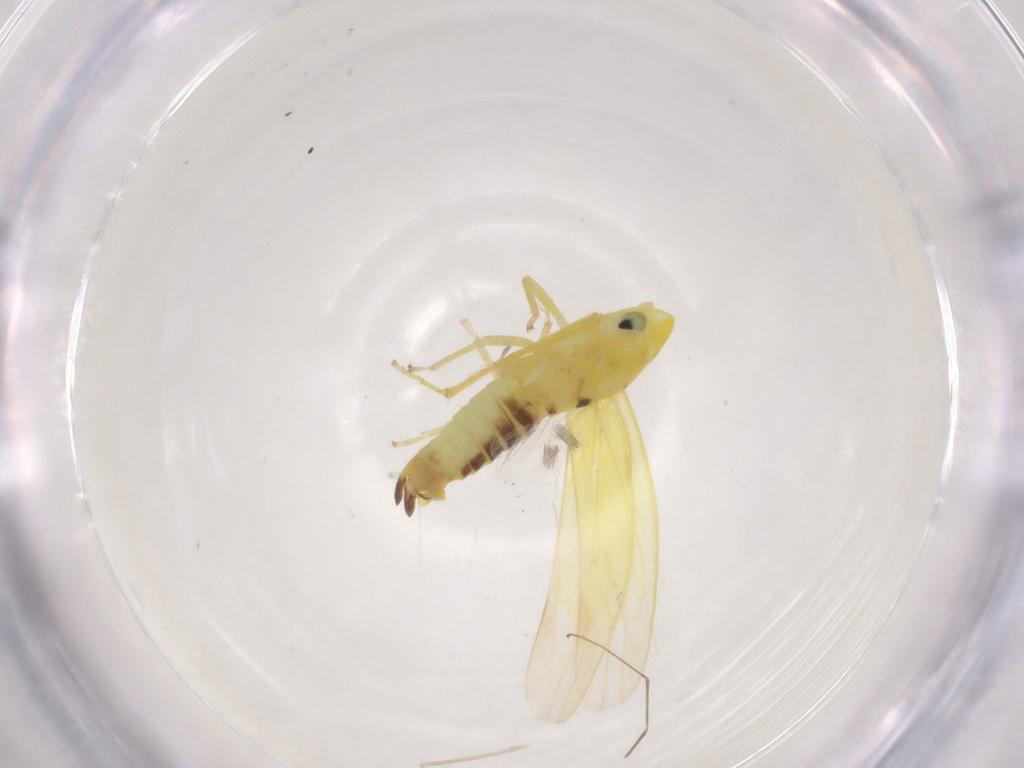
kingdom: Animalia
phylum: Arthropoda
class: Insecta
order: Hemiptera
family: Cicadellidae
